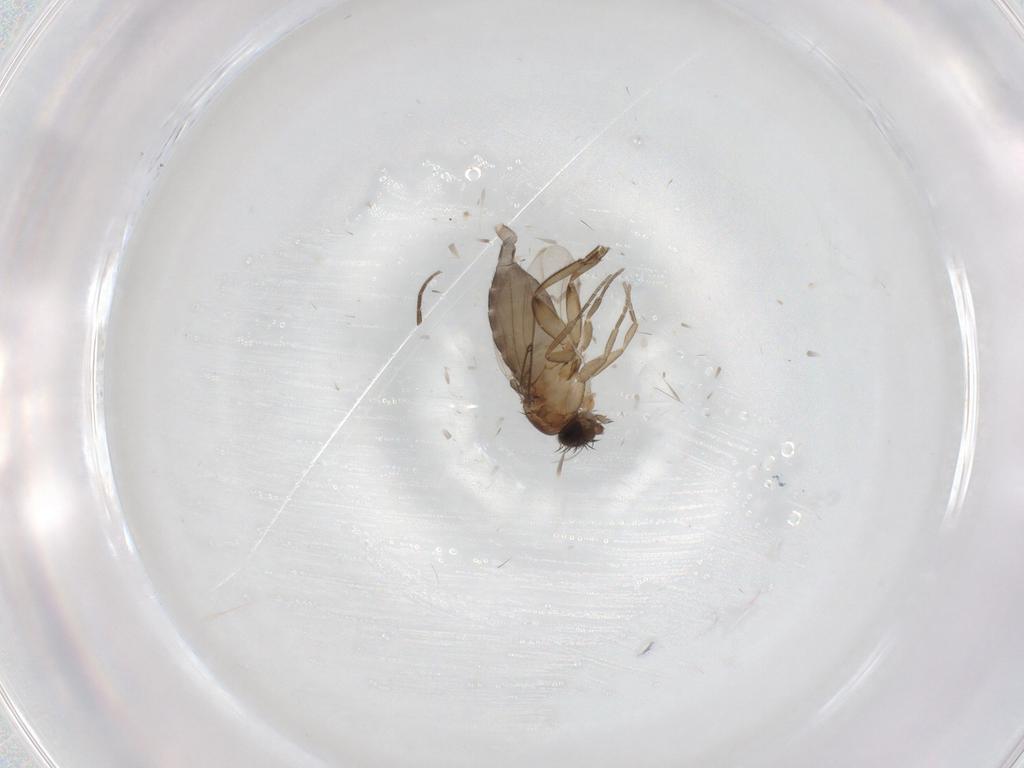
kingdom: Animalia
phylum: Arthropoda
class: Insecta
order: Diptera
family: Phoridae
